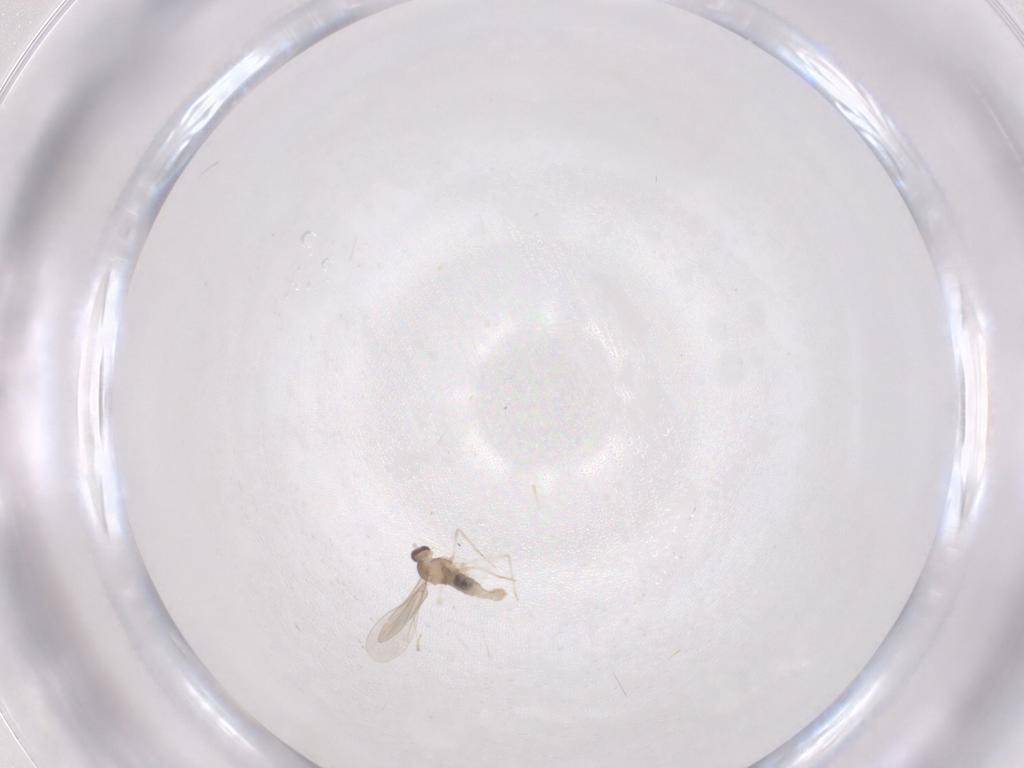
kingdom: Animalia
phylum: Arthropoda
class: Insecta
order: Diptera
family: Cecidomyiidae
